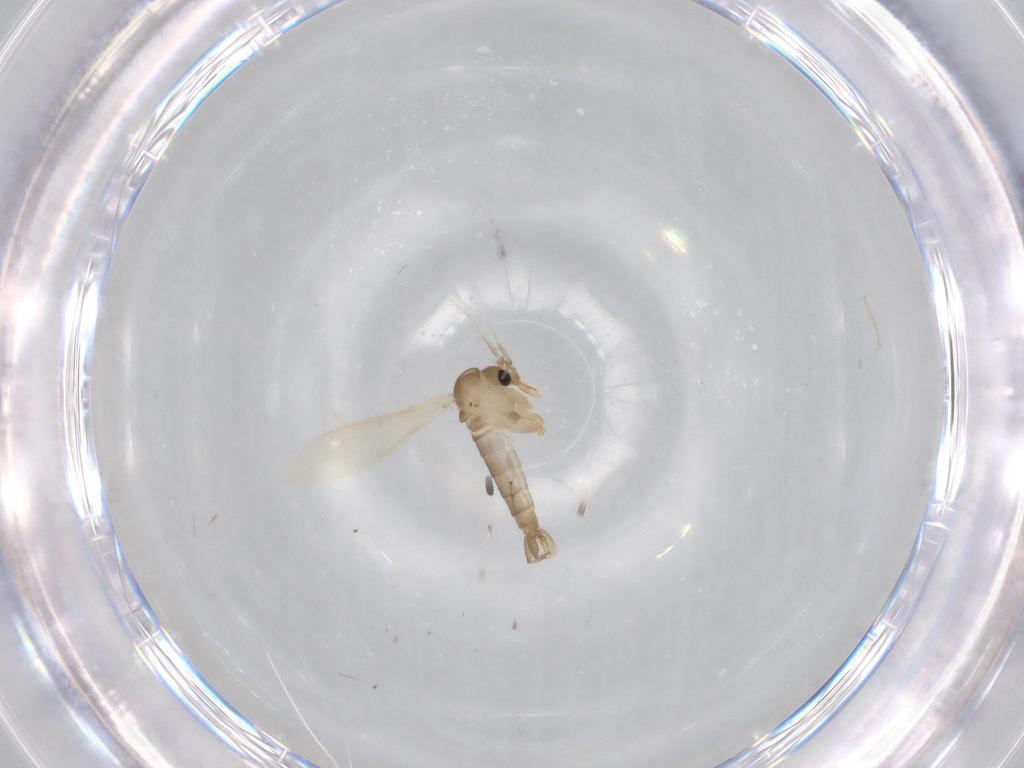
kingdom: Animalia
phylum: Arthropoda
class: Insecta
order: Diptera
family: Psychodidae
